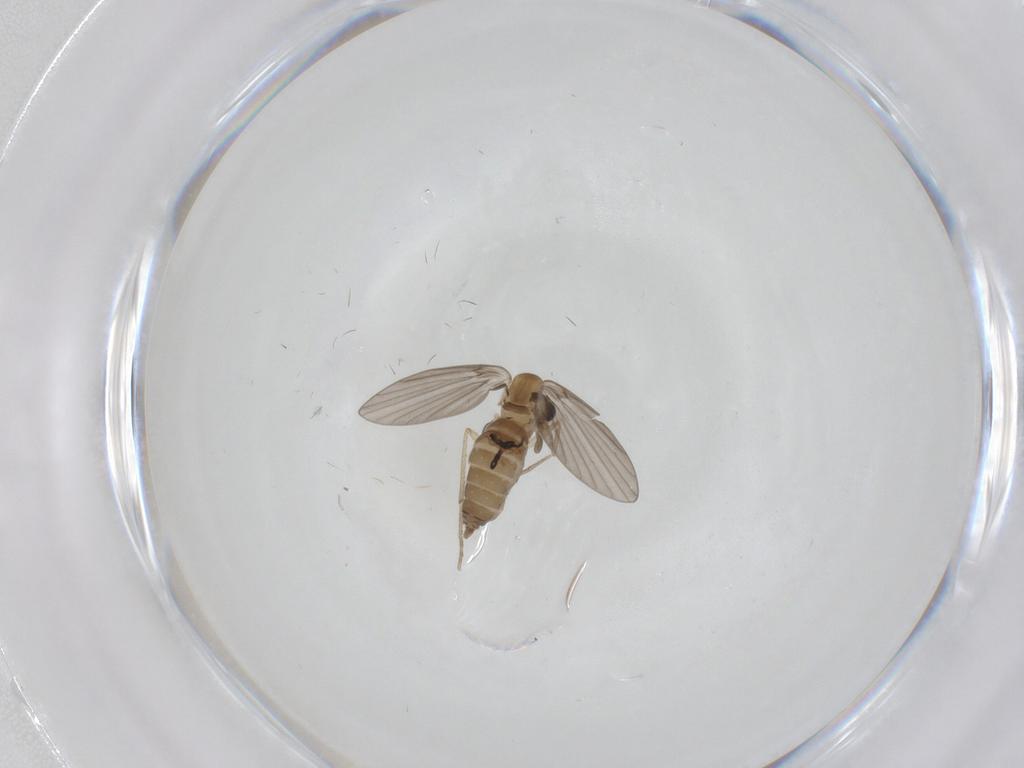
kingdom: Animalia
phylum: Arthropoda
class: Insecta
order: Diptera
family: Cecidomyiidae
